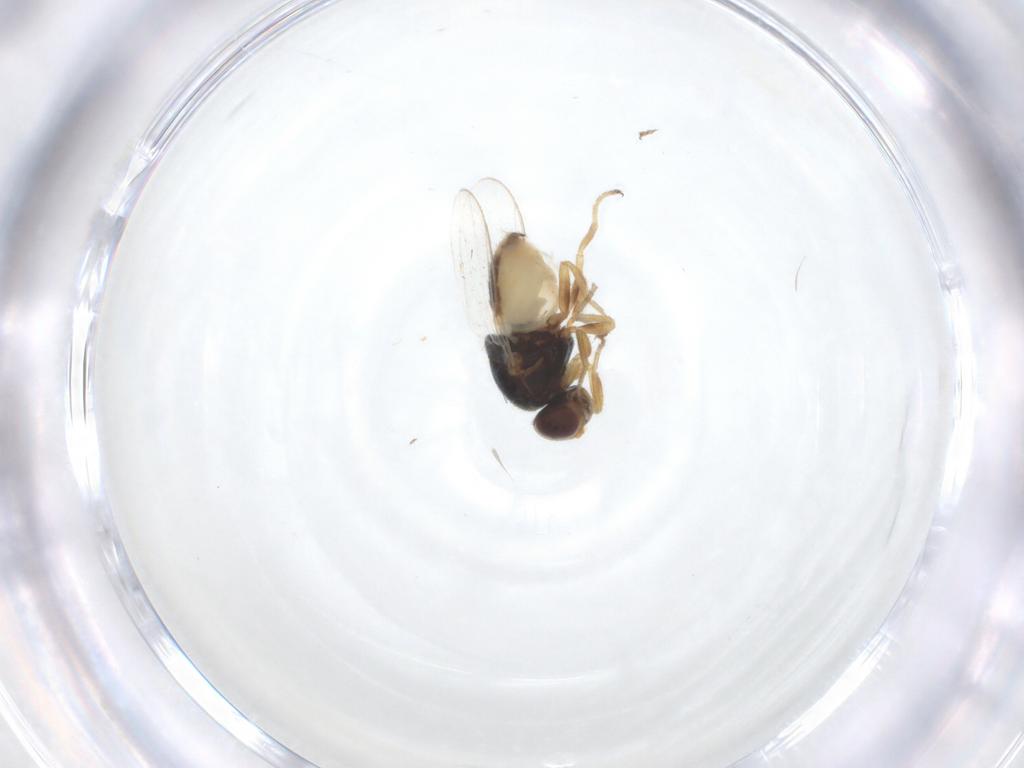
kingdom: Animalia
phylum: Arthropoda
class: Insecta
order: Diptera
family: Chloropidae
